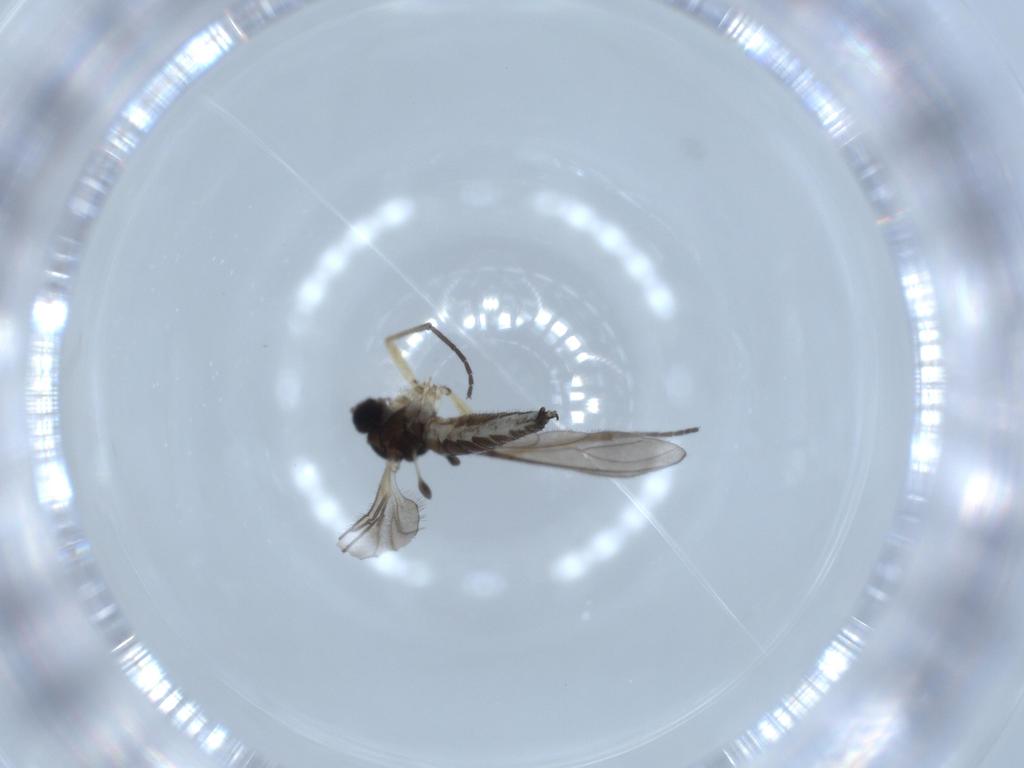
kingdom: Animalia
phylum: Arthropoda
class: Insecta
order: Diptera
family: Sciaridae
